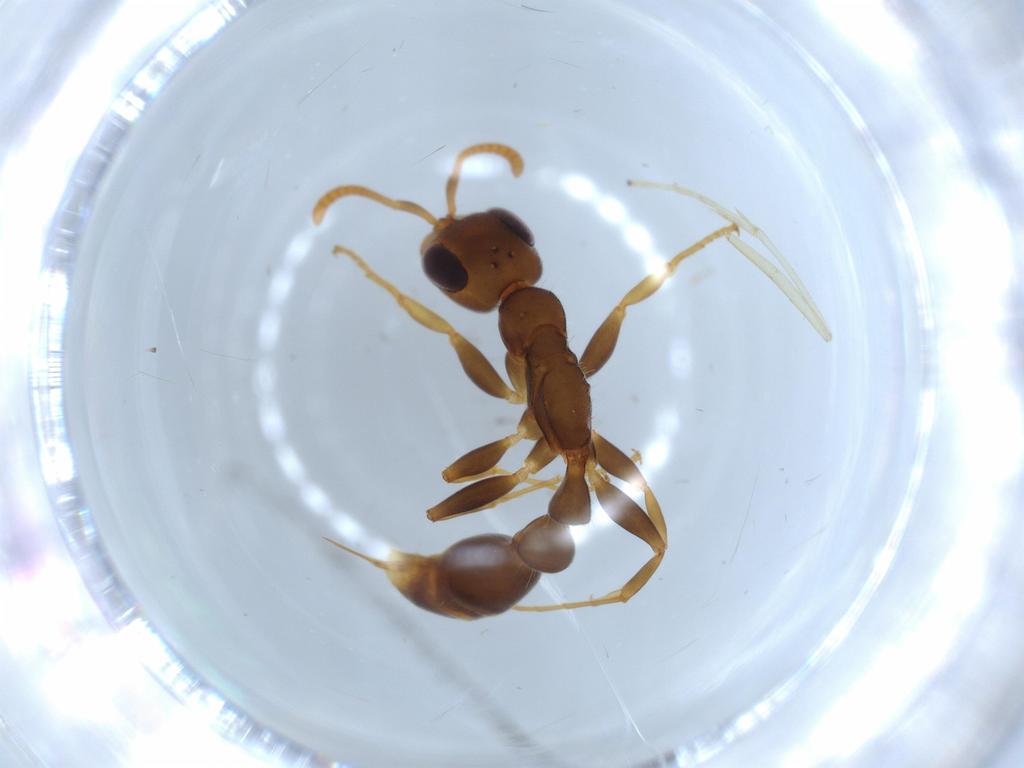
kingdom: Animalia
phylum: Arthropoda
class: Insecta
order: Hymenoptera
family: Formicidae
